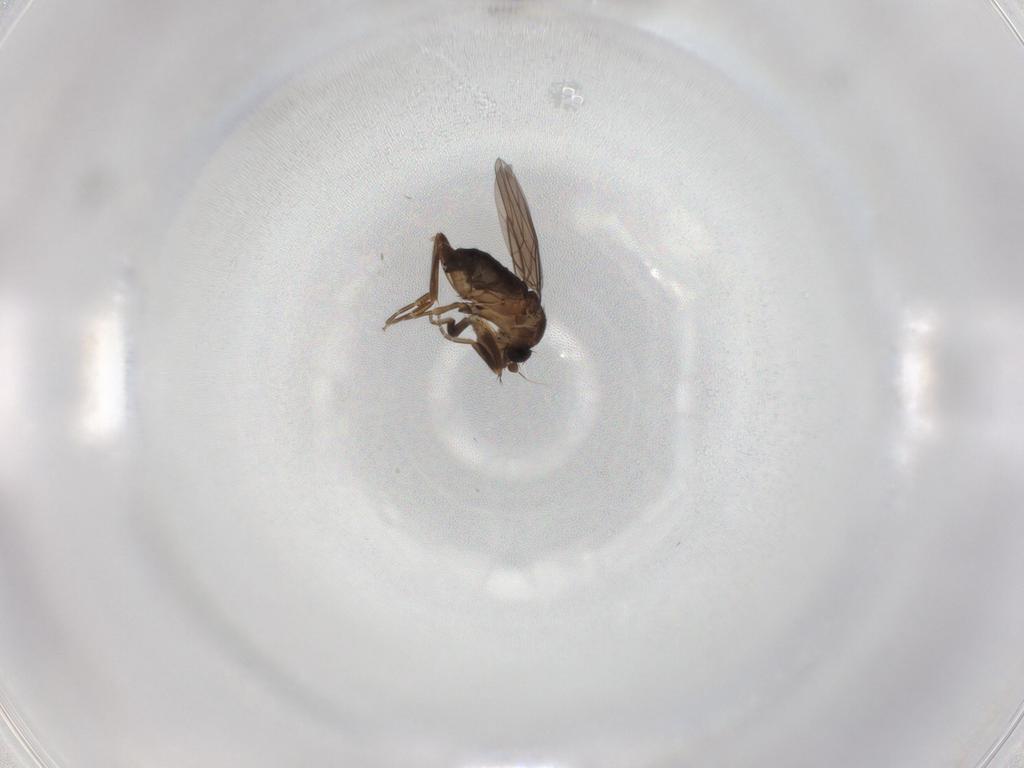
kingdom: Animalia
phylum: Arthropoda
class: Insecta
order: Diptera
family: Phoridae
